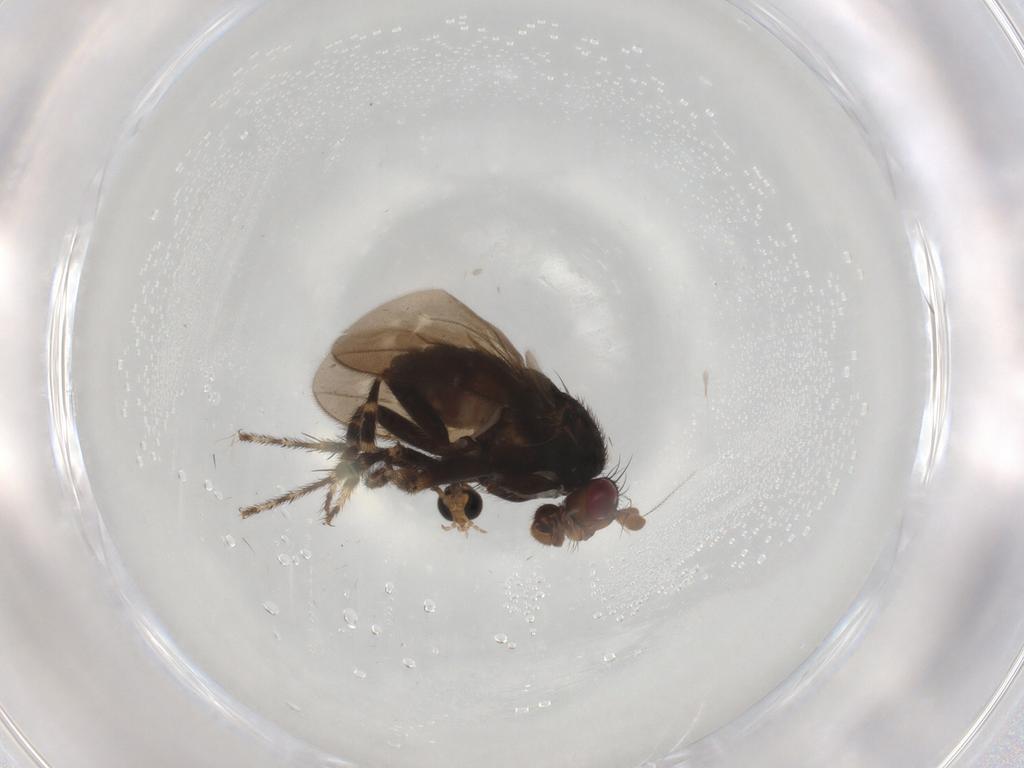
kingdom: Animalia
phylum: Arthropoda
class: Insecta
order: Diptera
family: Sciaridae
